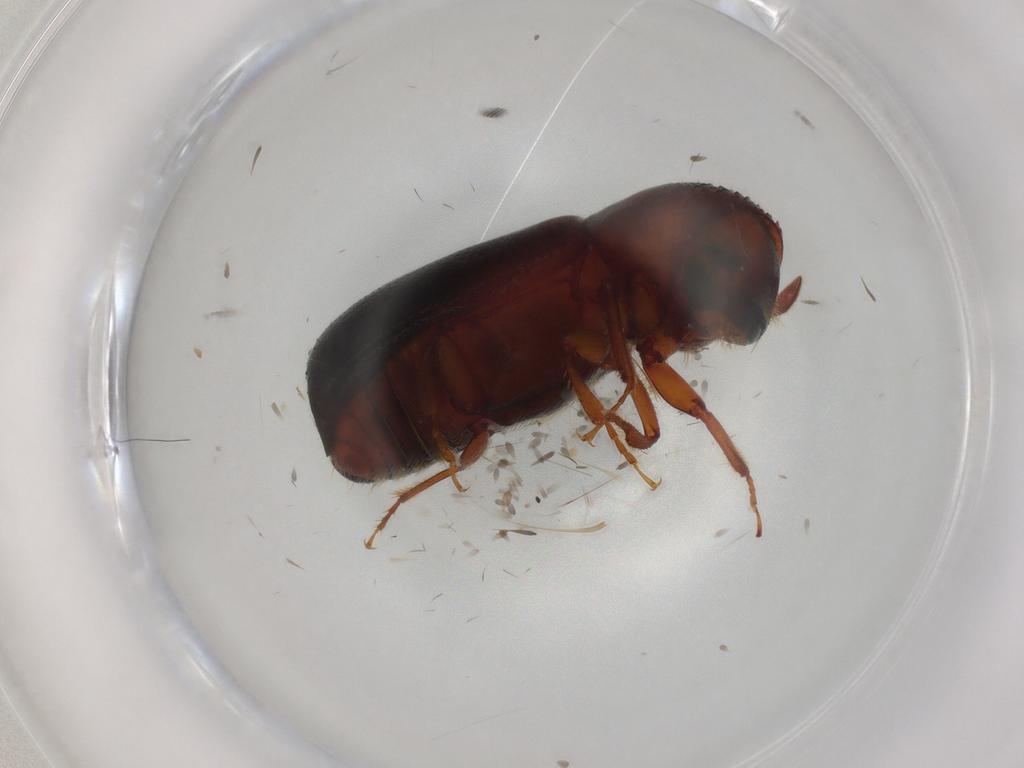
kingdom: Animalia
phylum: Arthropoda
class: Insecta
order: Coleoptera
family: Curculionidae
